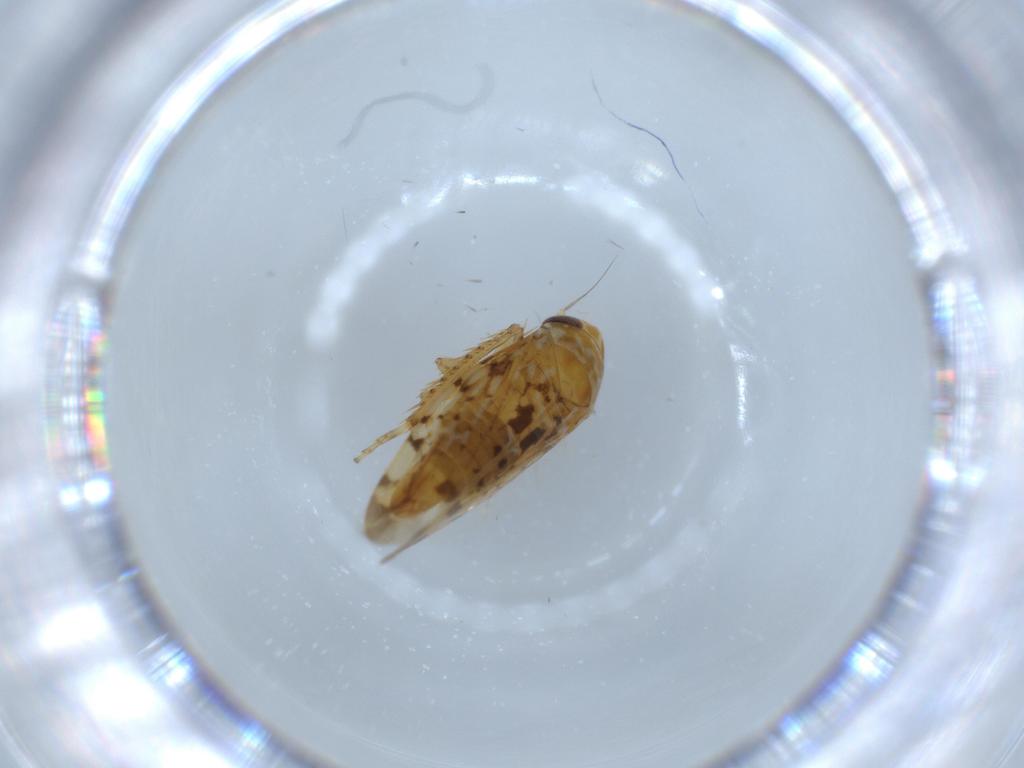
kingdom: Animalia
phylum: Arthropoda
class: Insecta
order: Hemiptera
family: Cicadellidae
